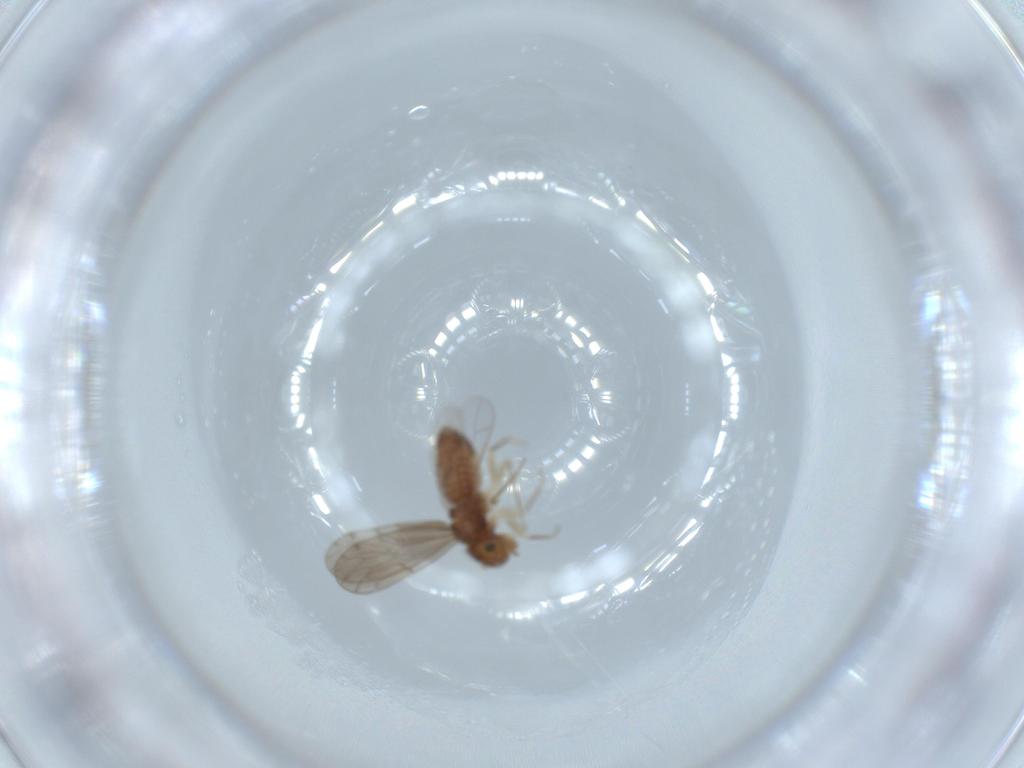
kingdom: Animalia
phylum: Arthropoda
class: Insecta
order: Psocodea
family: Ectopsocidae
